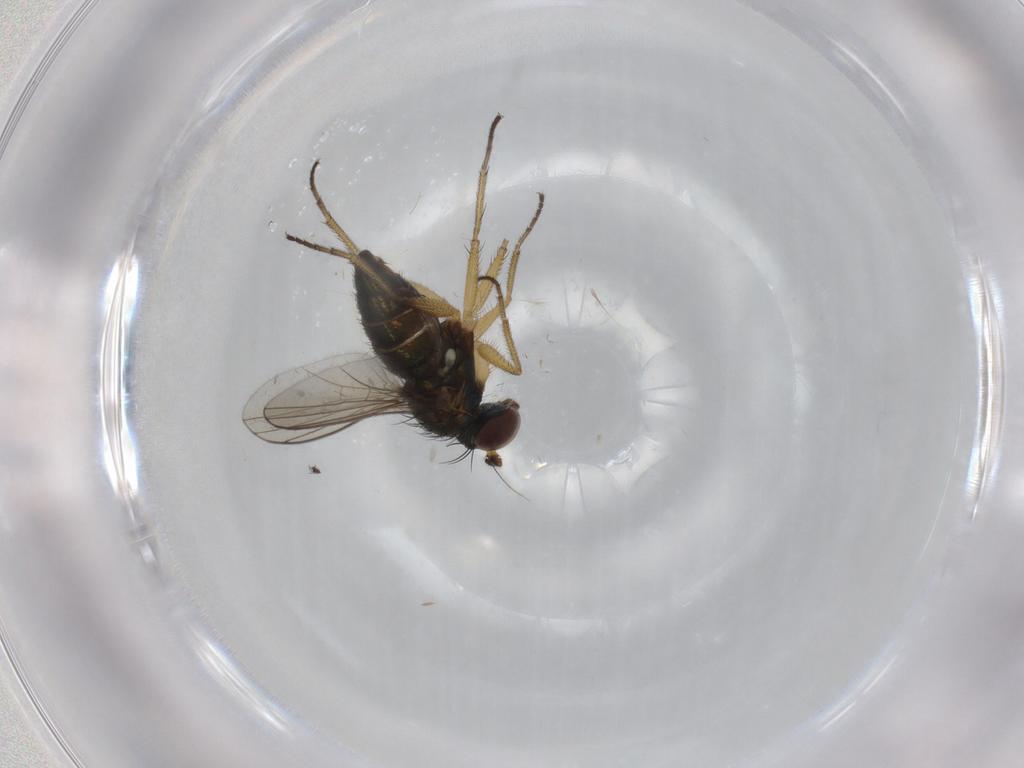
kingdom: Animalia
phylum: Arthropoda
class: Insecta
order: Diptera
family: Dolichopodidae
